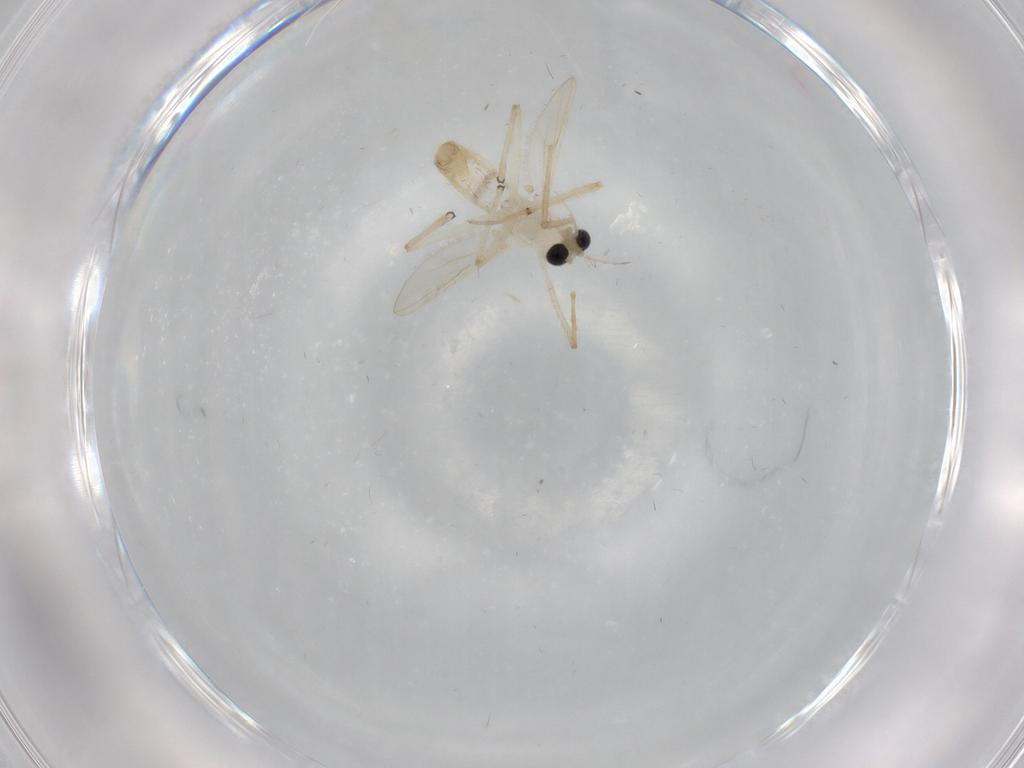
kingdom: Animalia
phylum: Arthropoda
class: Insecta
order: Diptera
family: Chironomidae
